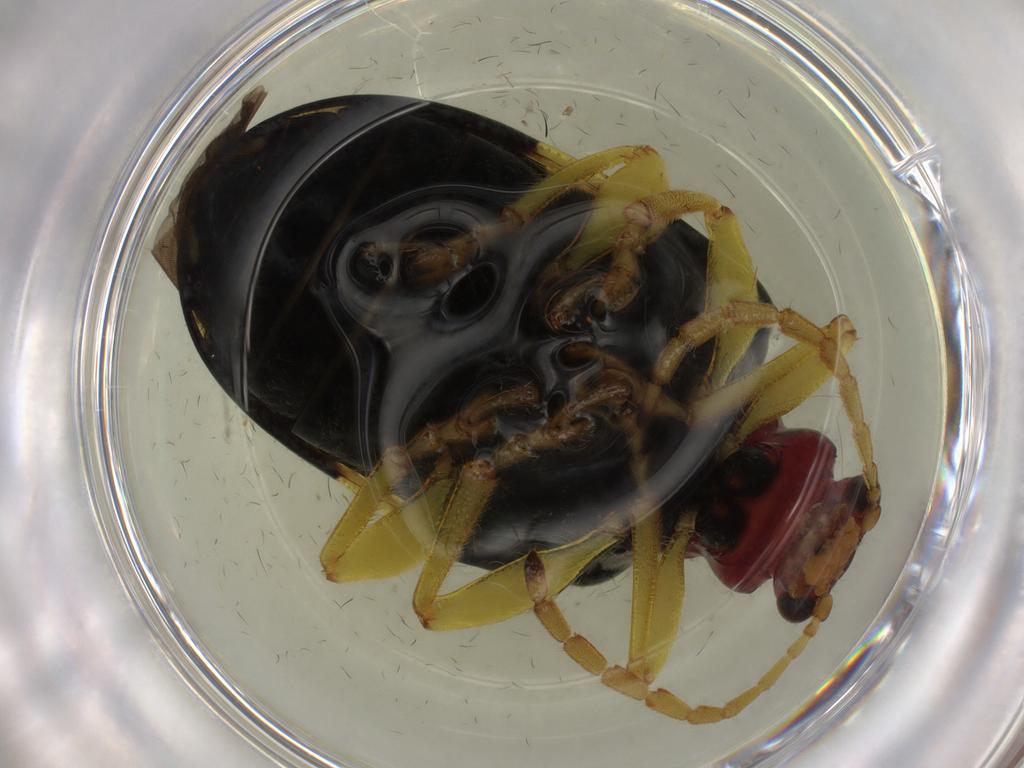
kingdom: Animalia
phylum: Arthropoda
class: Insecta
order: Coleoptera
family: Chrysomelidae
